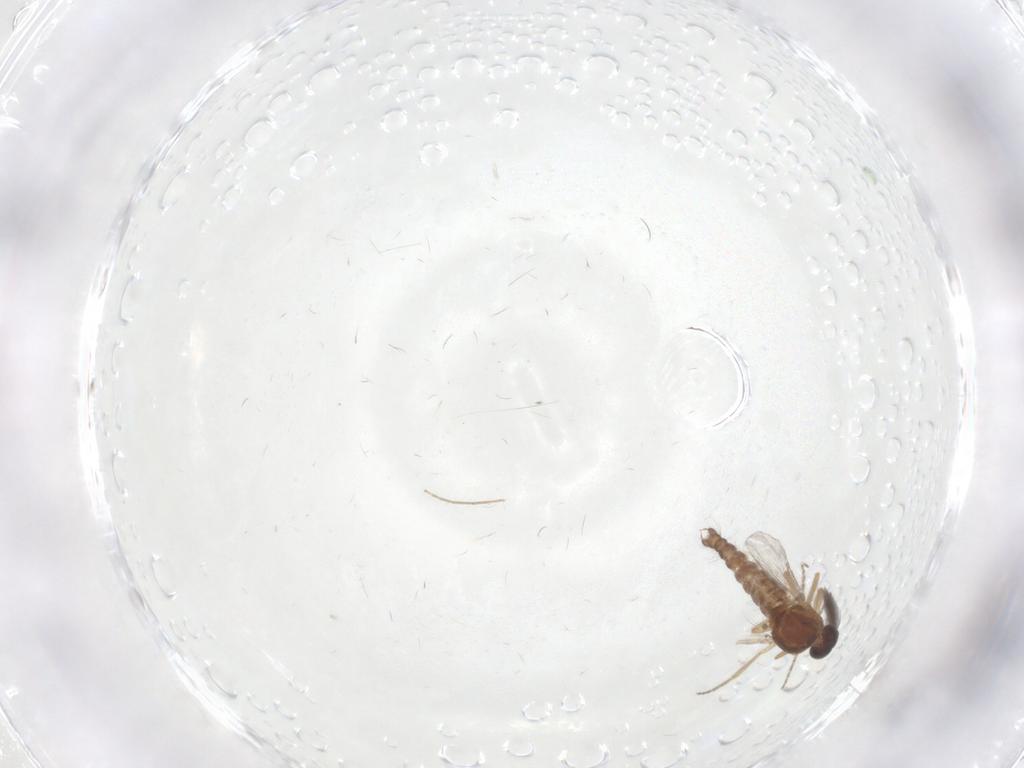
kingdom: Animalia
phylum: Arthropoda
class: Insecta
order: Diptera
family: Ceratopogonidae
